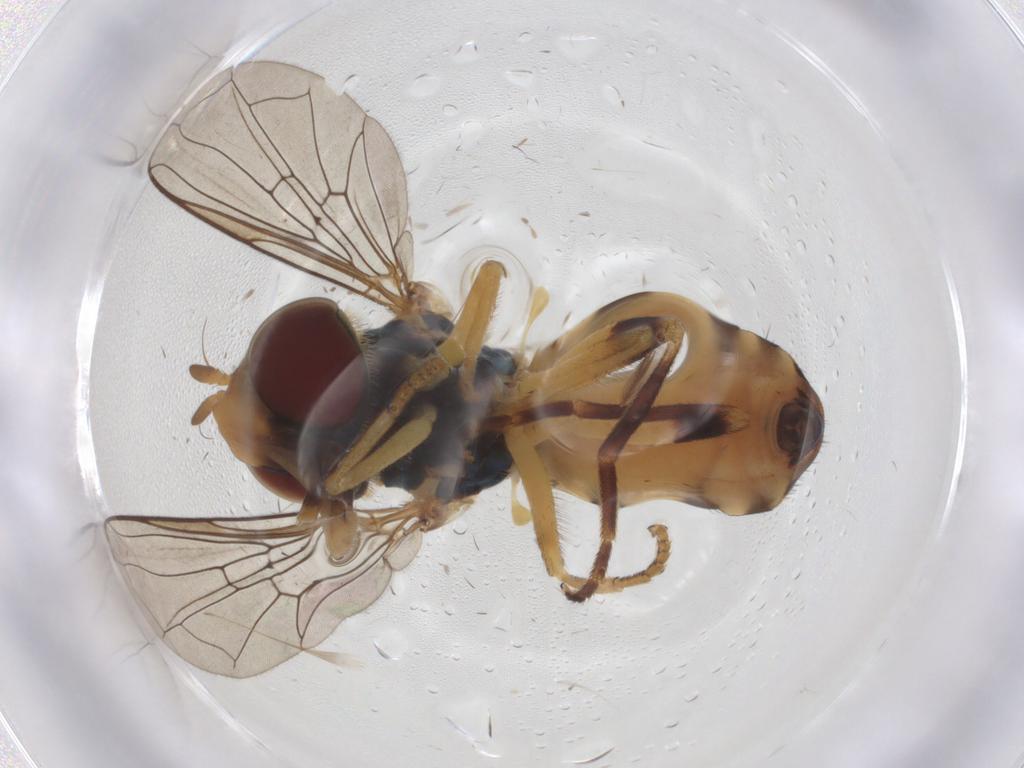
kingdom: Animalia
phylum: Arthropoda
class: Insecta
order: Diptera
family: Syrphidae
